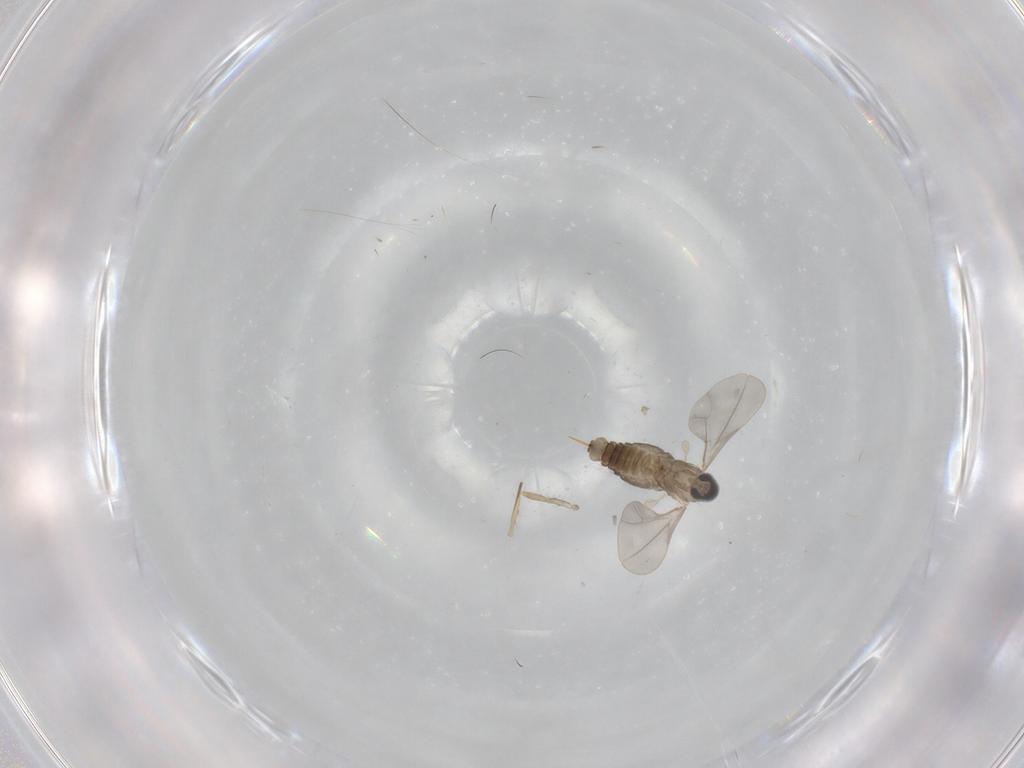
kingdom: Animalia
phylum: Arthropoda
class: Insecta
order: Diptera
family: Cecidomyiidae
